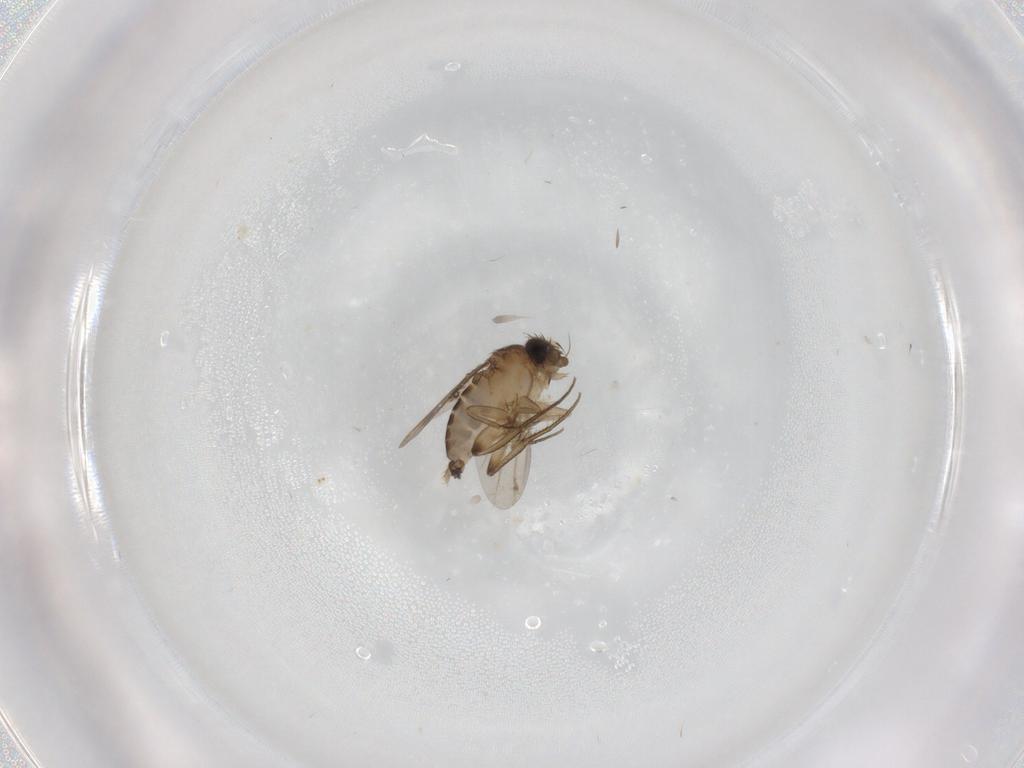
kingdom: Animalia
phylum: Arthropoda
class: Insecta
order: Diptera
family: Phoridae
